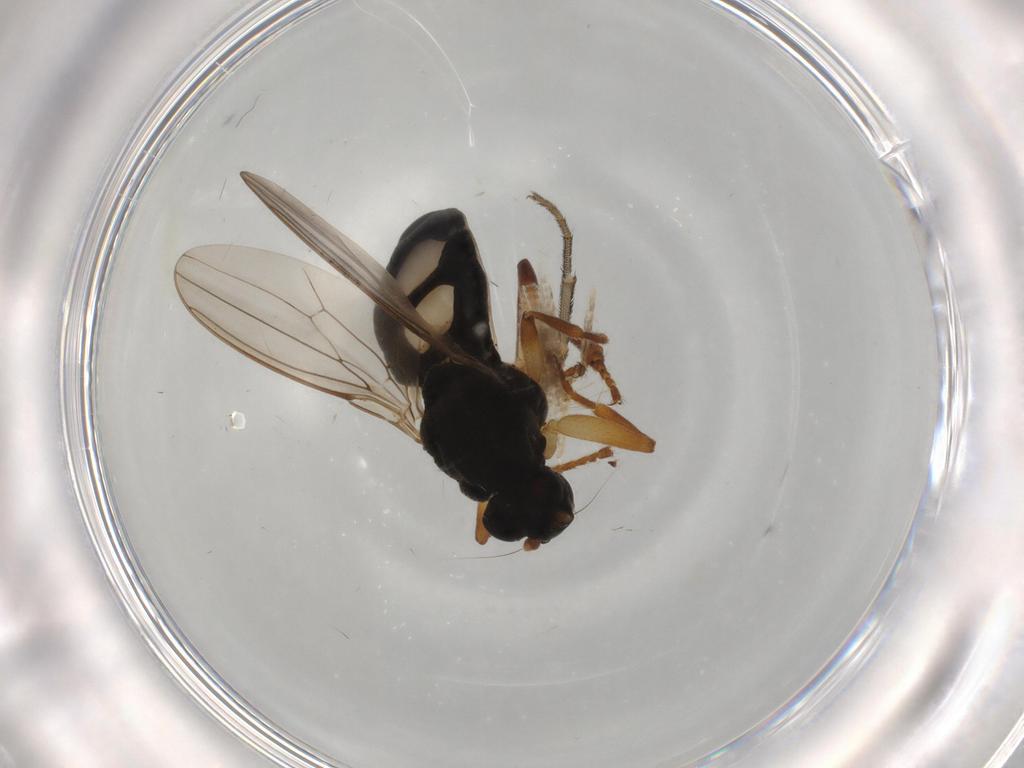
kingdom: Animalia
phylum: Arthropoda
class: Insecta
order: Diptera
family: Dolichopodidae
